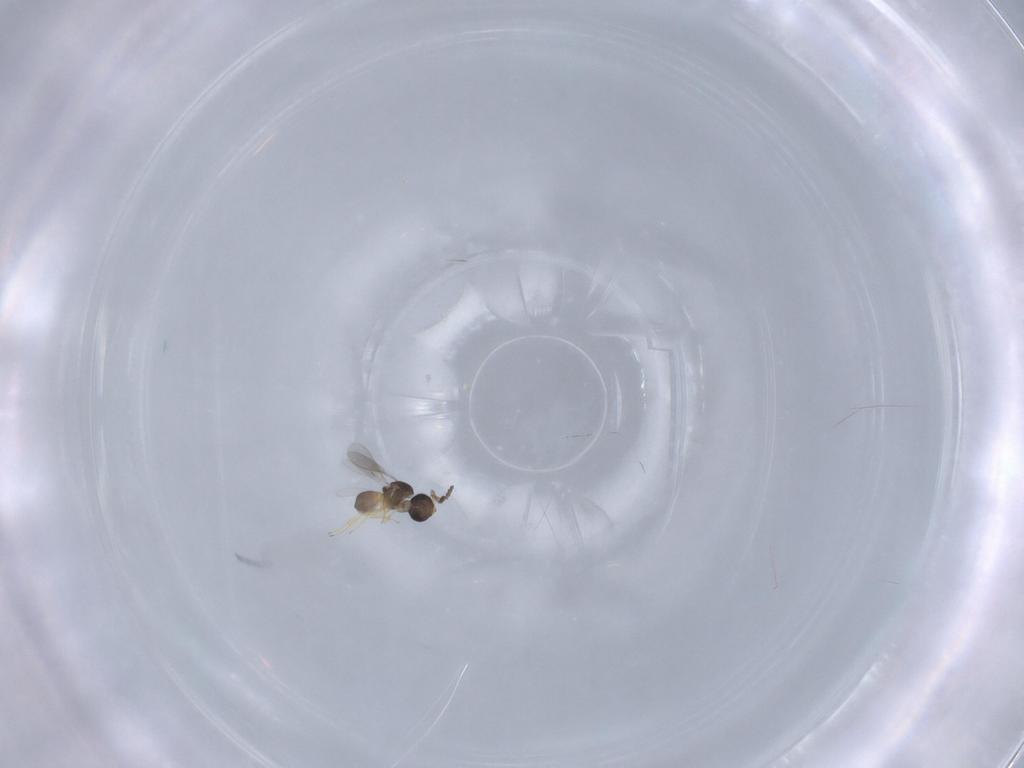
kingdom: Animalia
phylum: Arthropoda
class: Insecta
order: Hymenoptera
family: Scelionidae
